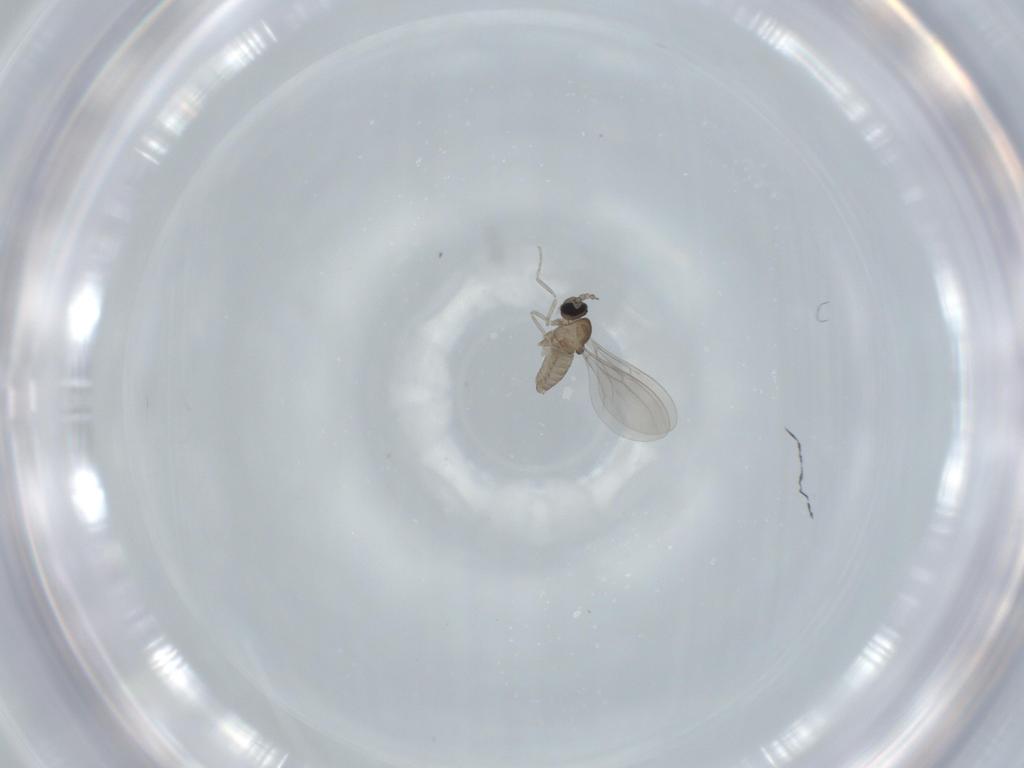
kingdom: Animalia
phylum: Arthropoda
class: Insecta
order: Diptera
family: Cecidomyiidae
